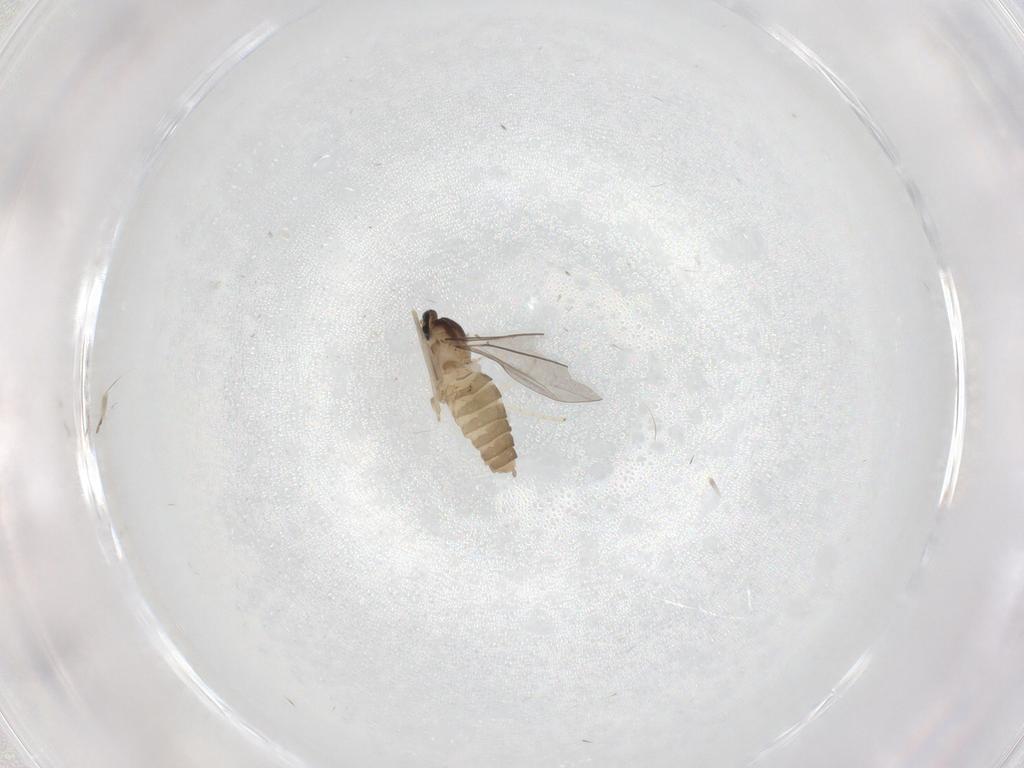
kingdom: Animalia
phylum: Arthropoda
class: Insecta
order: Diptera
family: Cecidomyiidae
